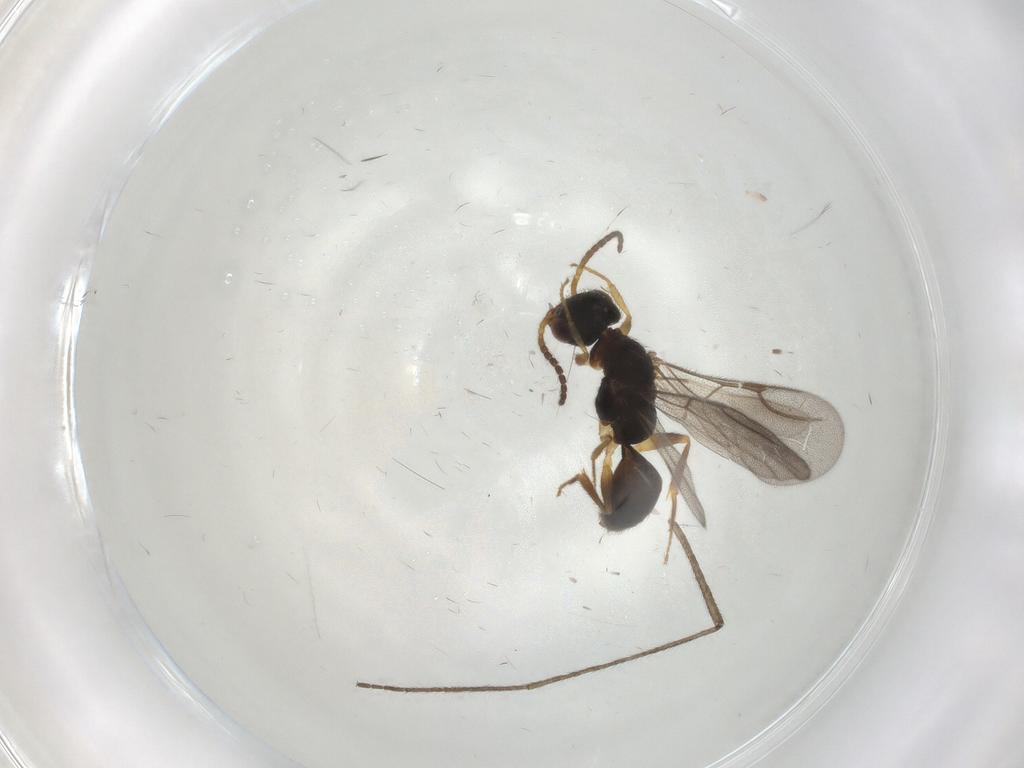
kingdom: Animalia
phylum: Arthropoda
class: Insecta
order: Hymenoptera
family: Bethylidae
